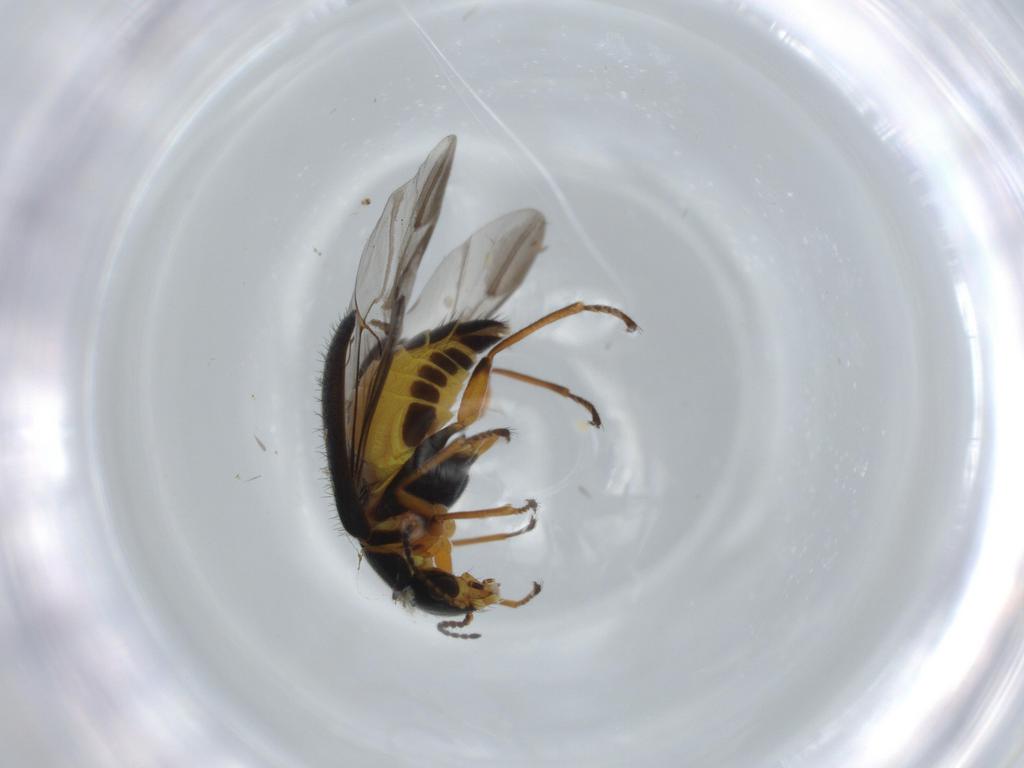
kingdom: Animalia
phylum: Arthropoda
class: Insecta
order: Coleoptera
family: Melyridae
